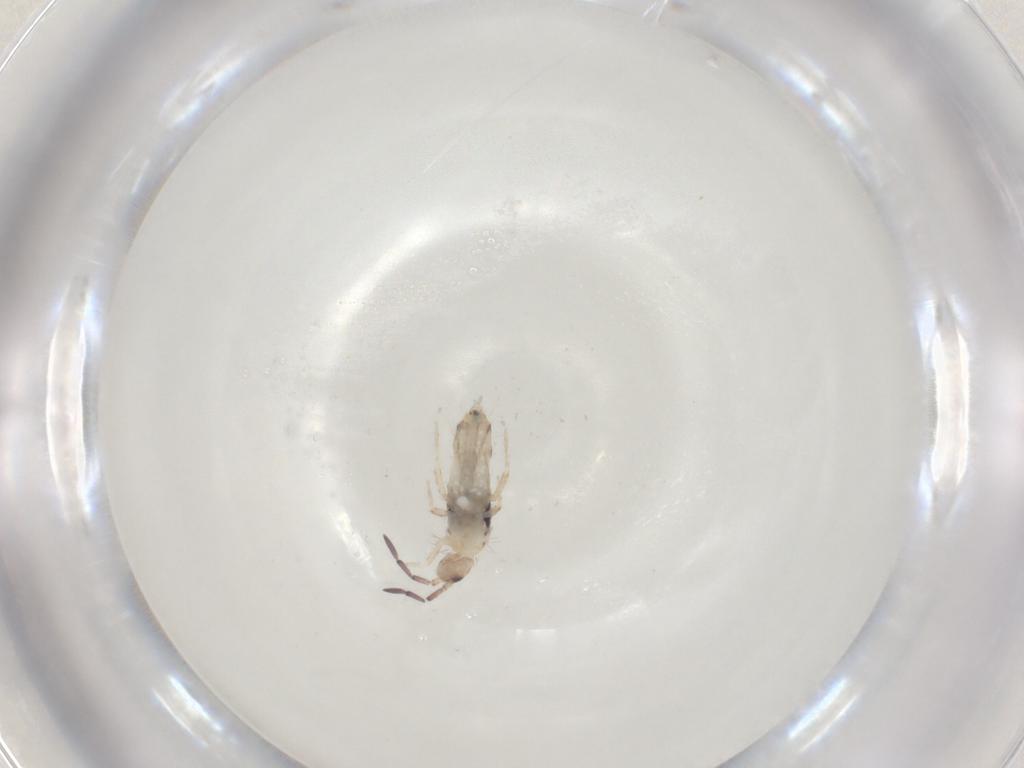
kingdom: Animalia
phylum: Arthropoda
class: Collembola
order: Entomobryomorpha
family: Entomobryidae
